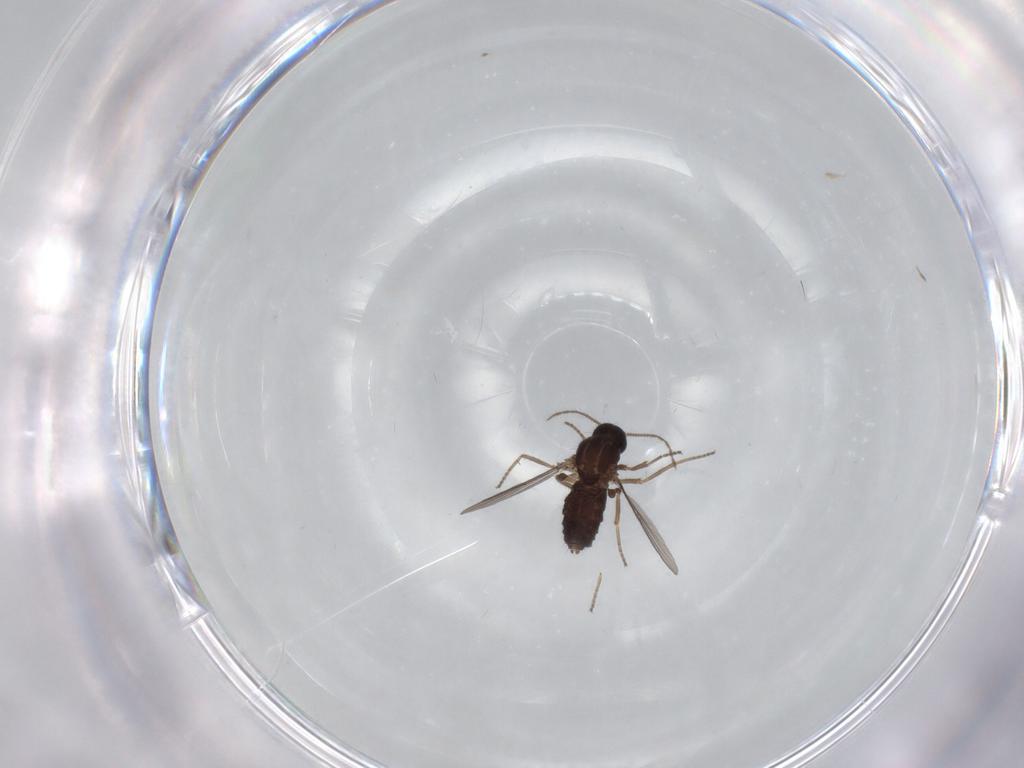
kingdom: Animalia
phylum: Arthropoda
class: Insecta
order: Diptera
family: Ceratopogonidae
